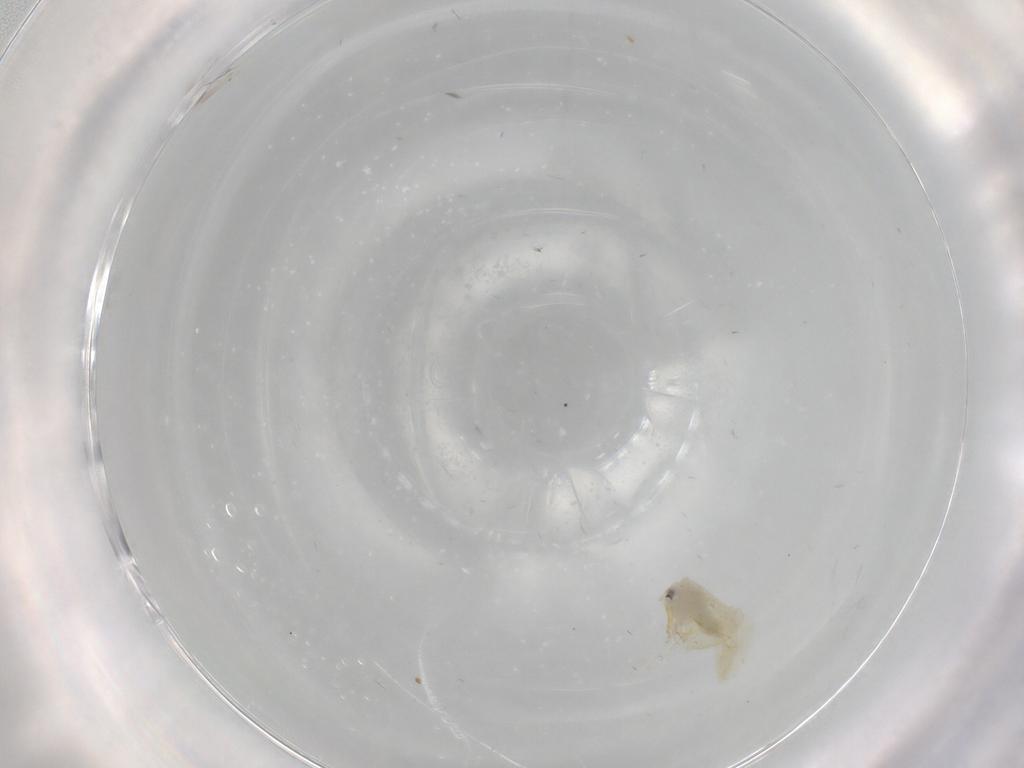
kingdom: Animalia
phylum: Arthropoda
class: Insecta
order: Hemiptera
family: Aleyrodidae
